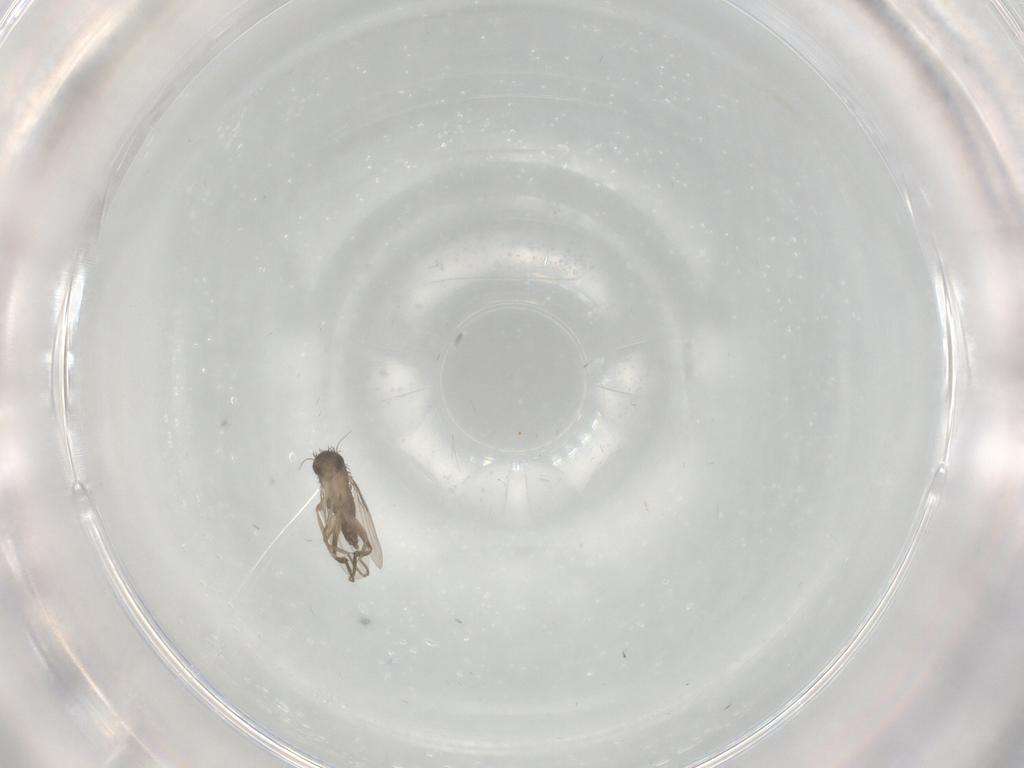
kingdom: Animalia
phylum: Arthropoda
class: Insecta
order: Diptera
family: Phoridae
